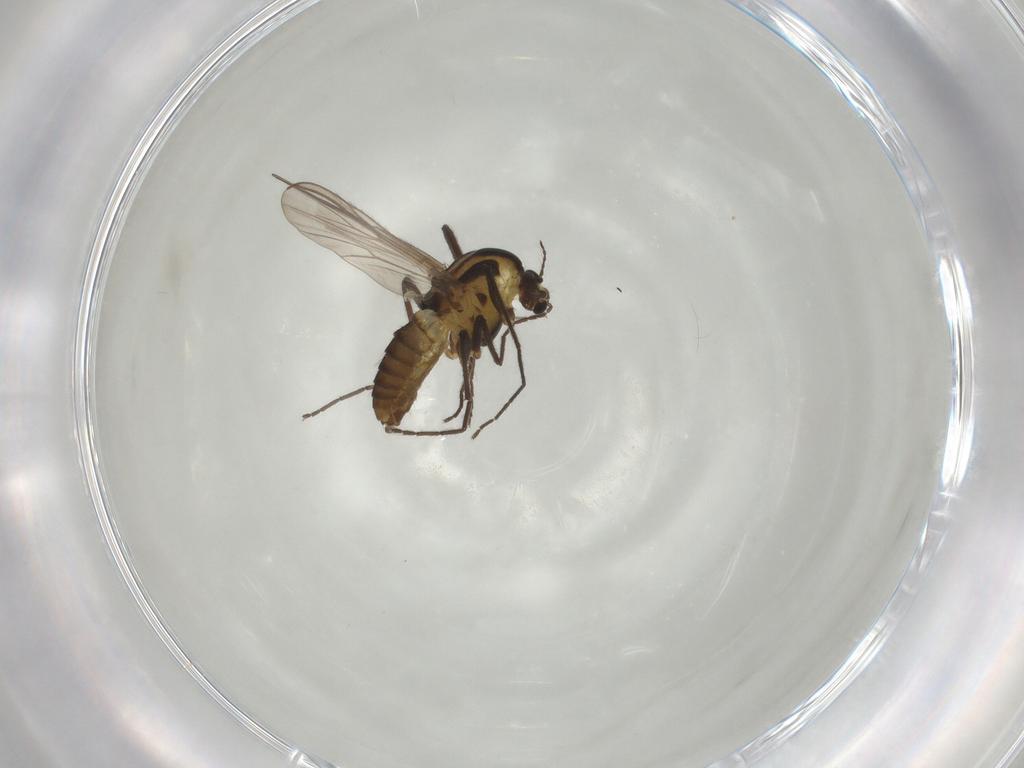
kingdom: Animalia
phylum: Arthropoda
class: Insecta
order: Diptera
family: Chironomidae
